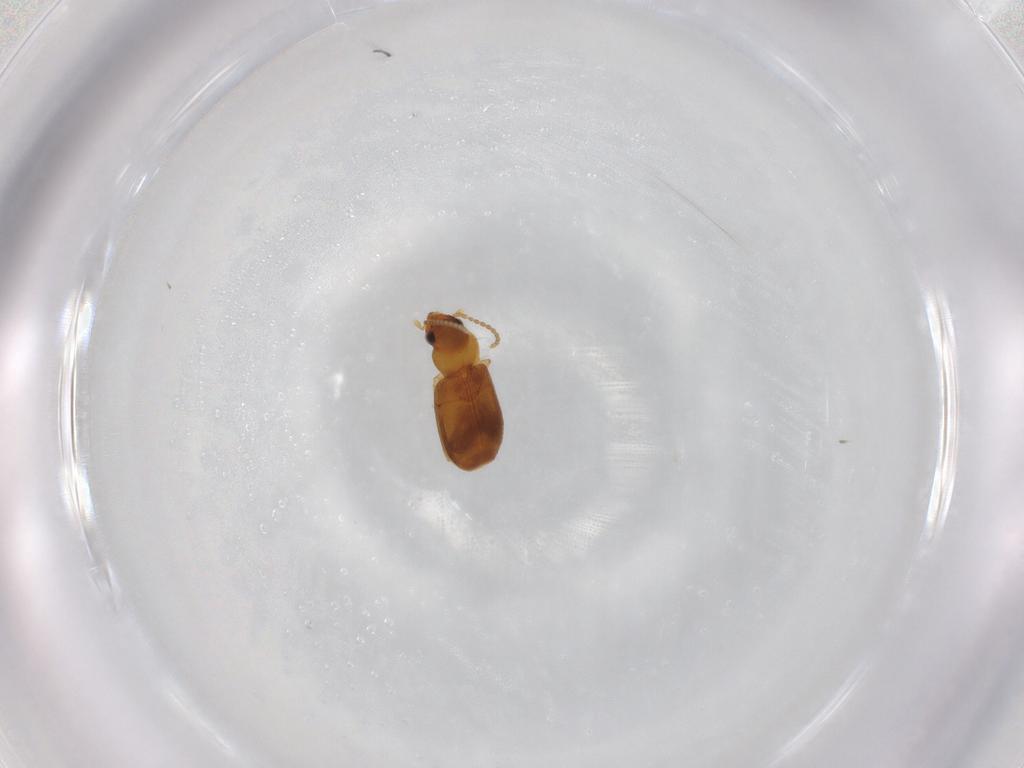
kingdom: Animalia
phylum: Arthropoda
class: Insecta
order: Coleoptera
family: Carabidae
